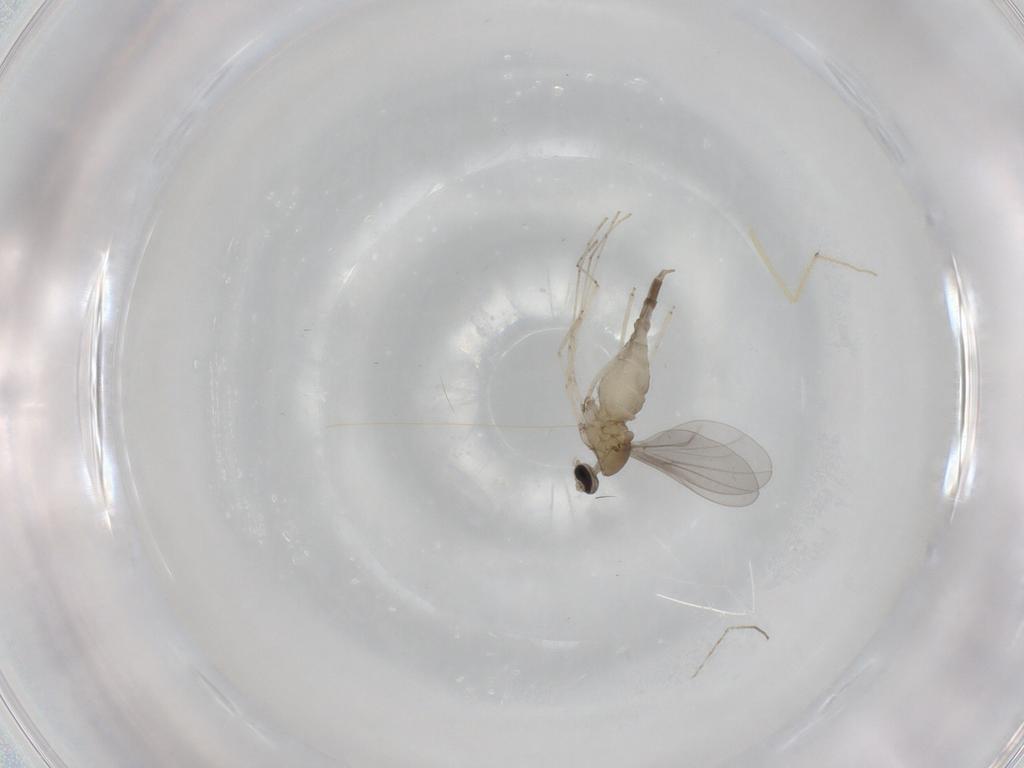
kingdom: Animalia
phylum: Arthropoda
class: Insecta
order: Diptera
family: Cecidomyiidae
